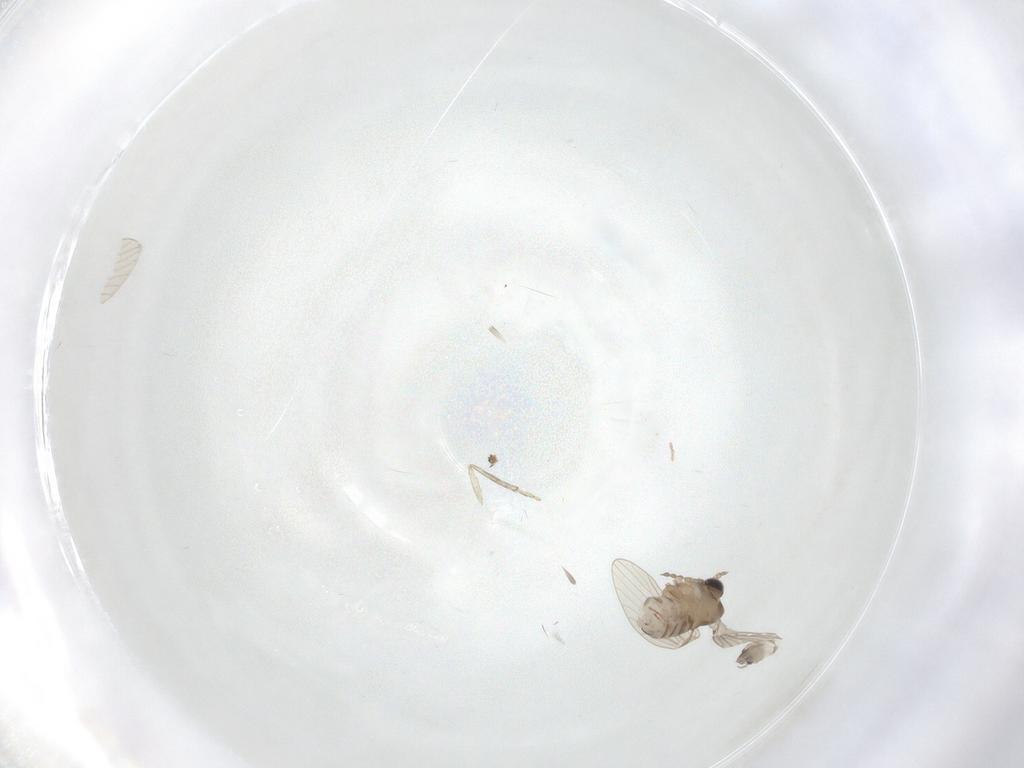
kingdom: Animalia
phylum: Arthropoda
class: Insecta
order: Diptera
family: Psychodidae
